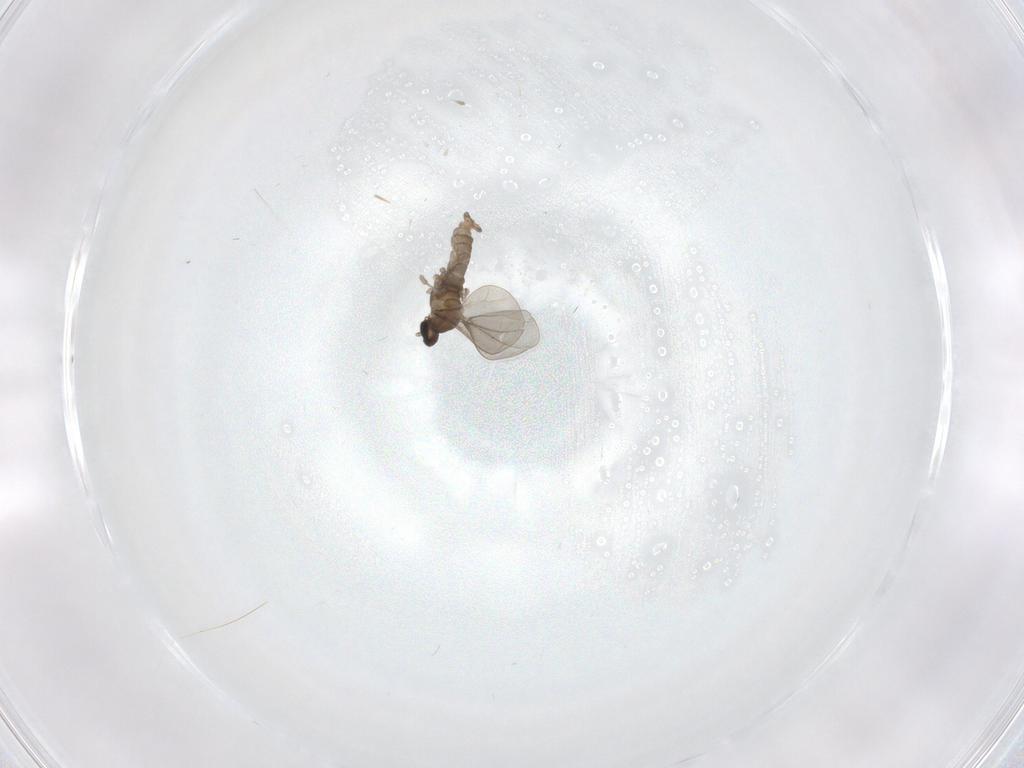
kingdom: Animalia
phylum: Arthropoda
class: Insecta
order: Diptera
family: Cecidomyiidae
